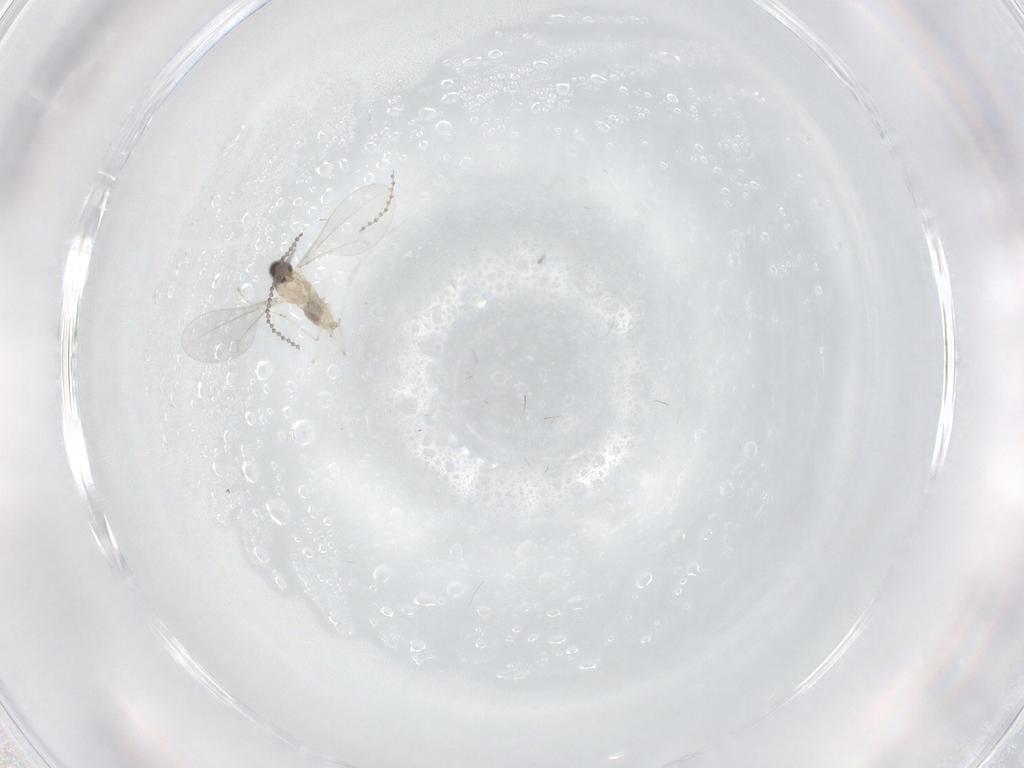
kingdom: Animalia
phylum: Arthropoda
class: Insecta
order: Diptera
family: Cecidomyiidae
